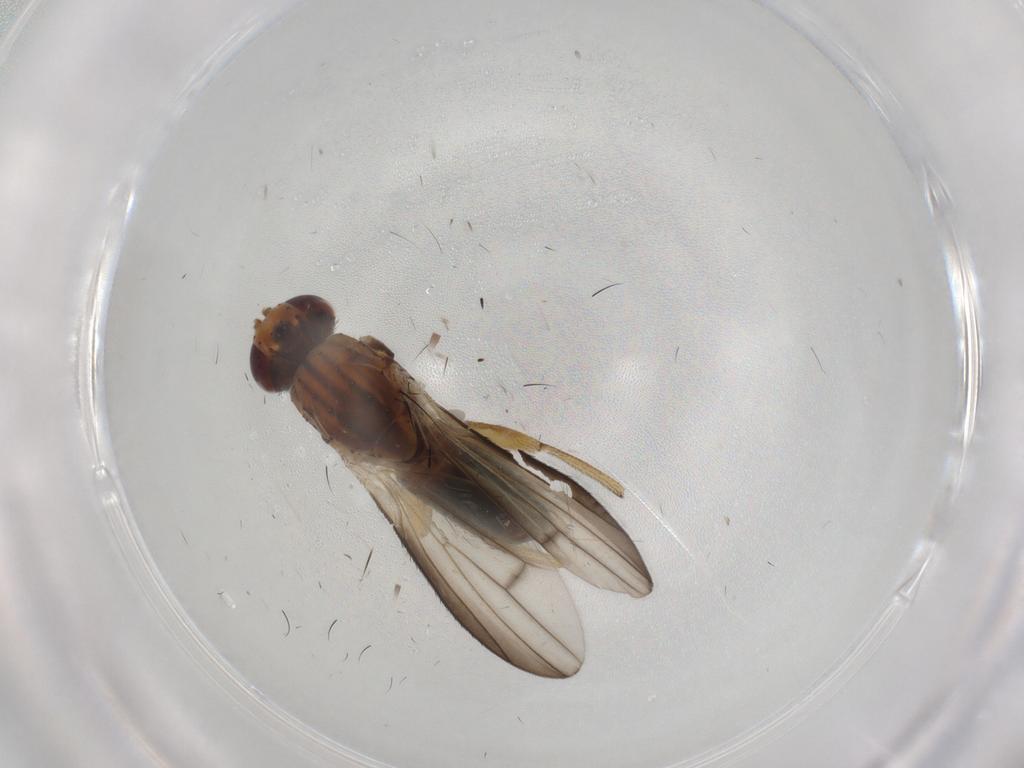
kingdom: Animalia
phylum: Arthropoda
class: Insecta
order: Diptera
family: Heleomyzidae
